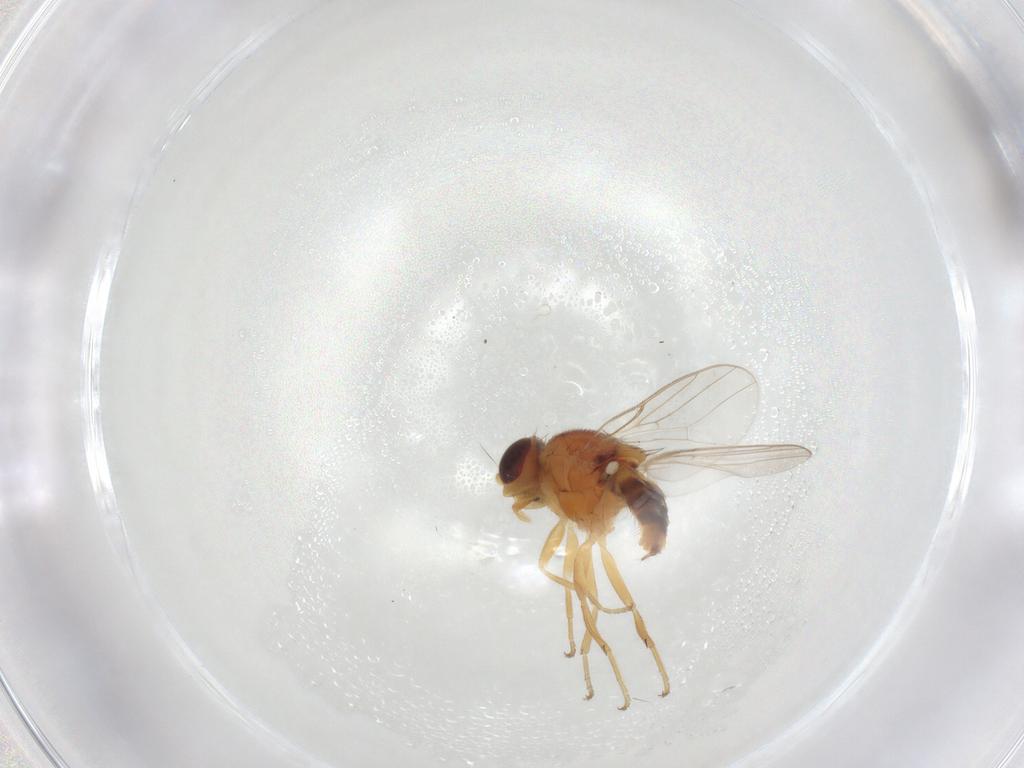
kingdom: Animalia
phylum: Arthropoda
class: Insecta
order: Diptera
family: Chloropidae
